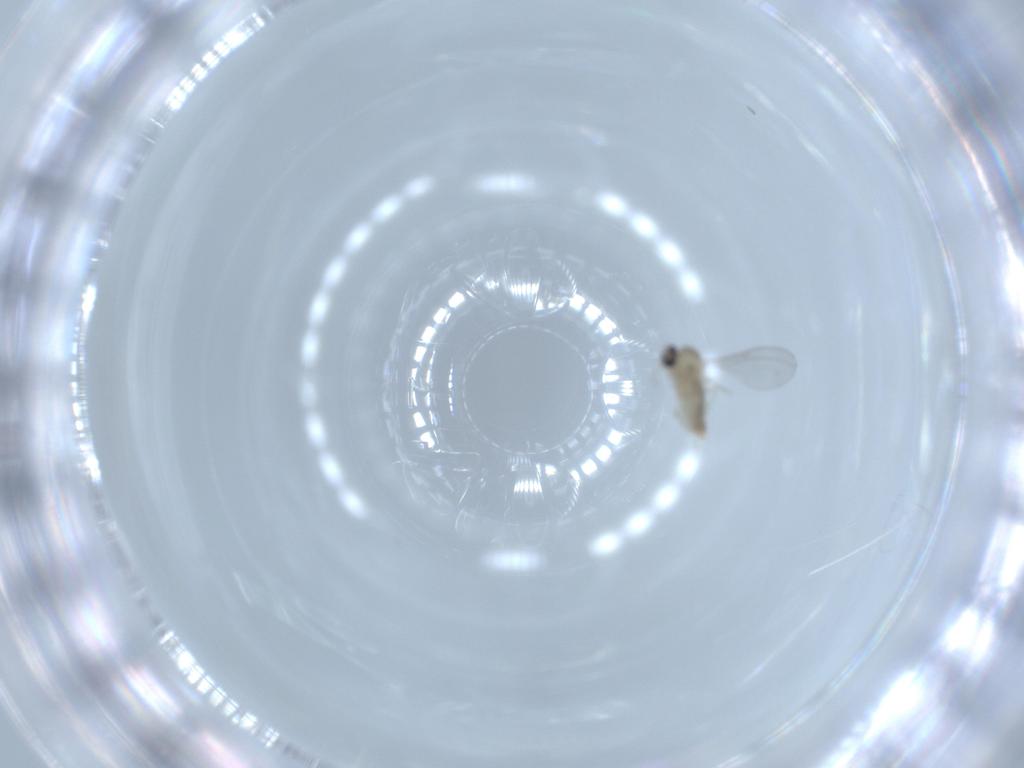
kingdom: Animalia
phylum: Arthropoda
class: Insecta
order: Diptera
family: Cecidomyiidae
